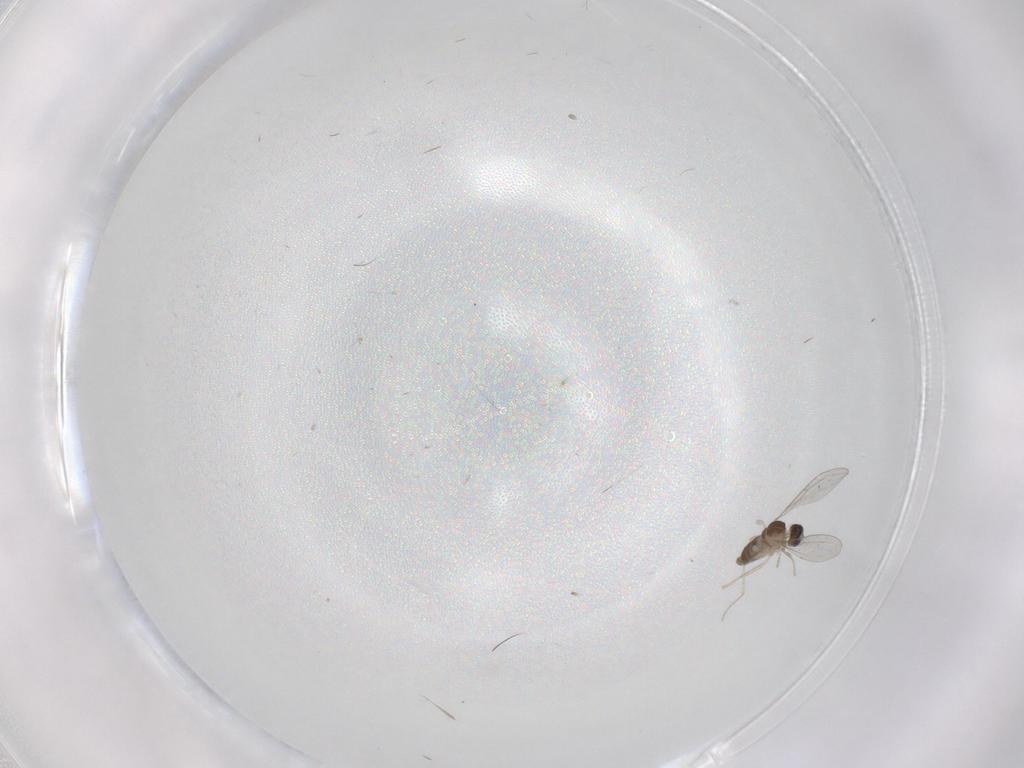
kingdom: Animalia
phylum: Arthropoda
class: Insecta
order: Diptera
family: Cecidomyiidae
